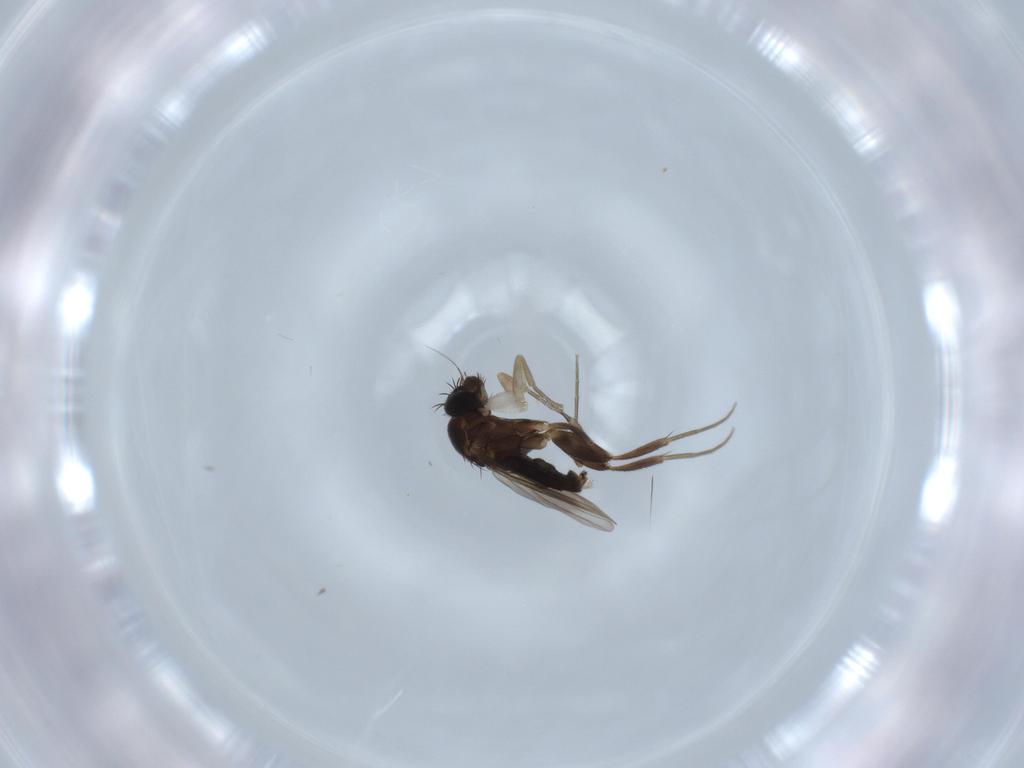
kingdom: Animalia
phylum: Arthropoda
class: Insecta
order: Diptera
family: Phoridae
